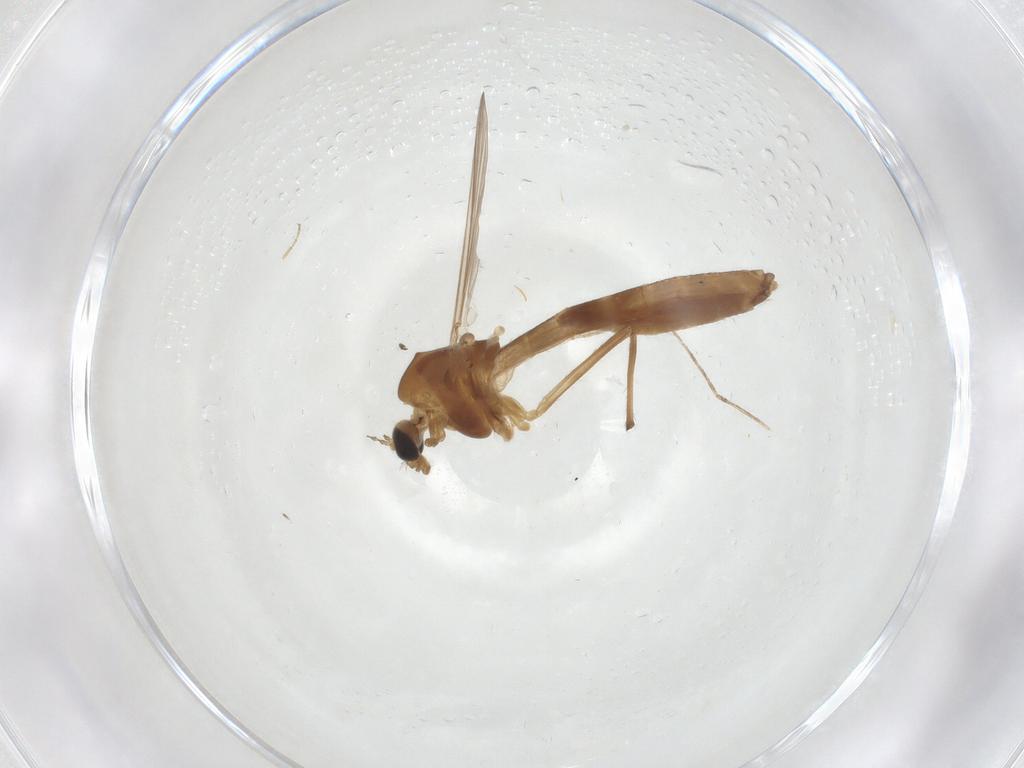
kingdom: Animalia
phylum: Arthropoda
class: Insecta
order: Diptera
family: Chironomidae
